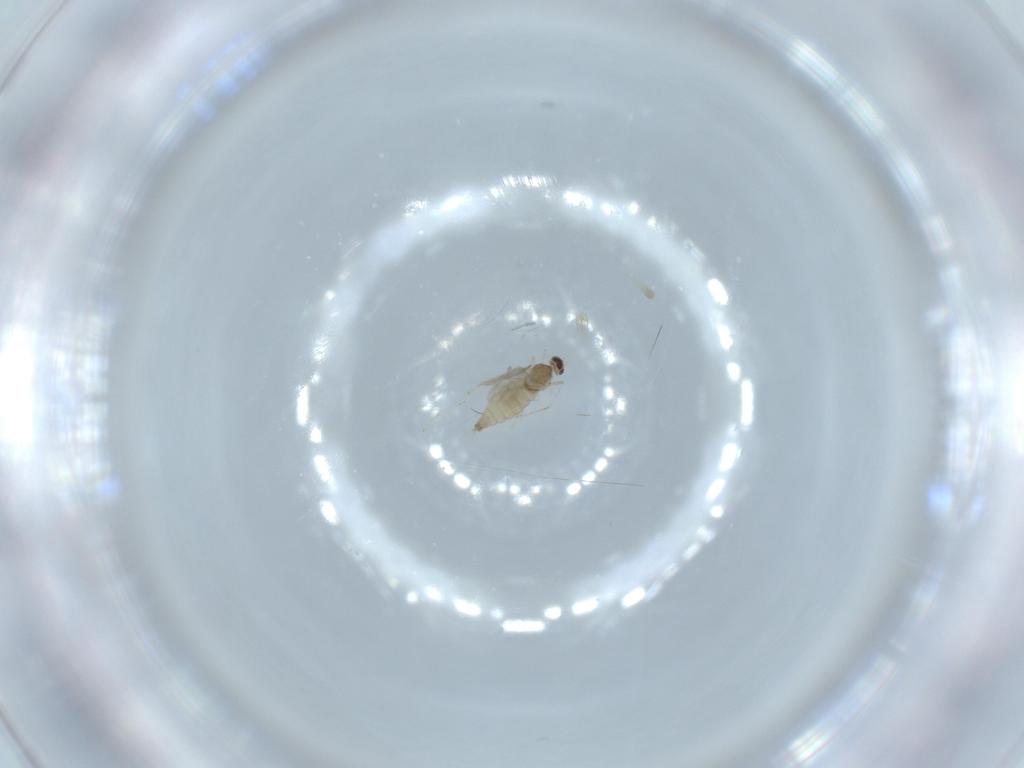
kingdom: Animalia
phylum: Arthropoda
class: Insecta
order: Diptera
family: Cecidomyiidae
